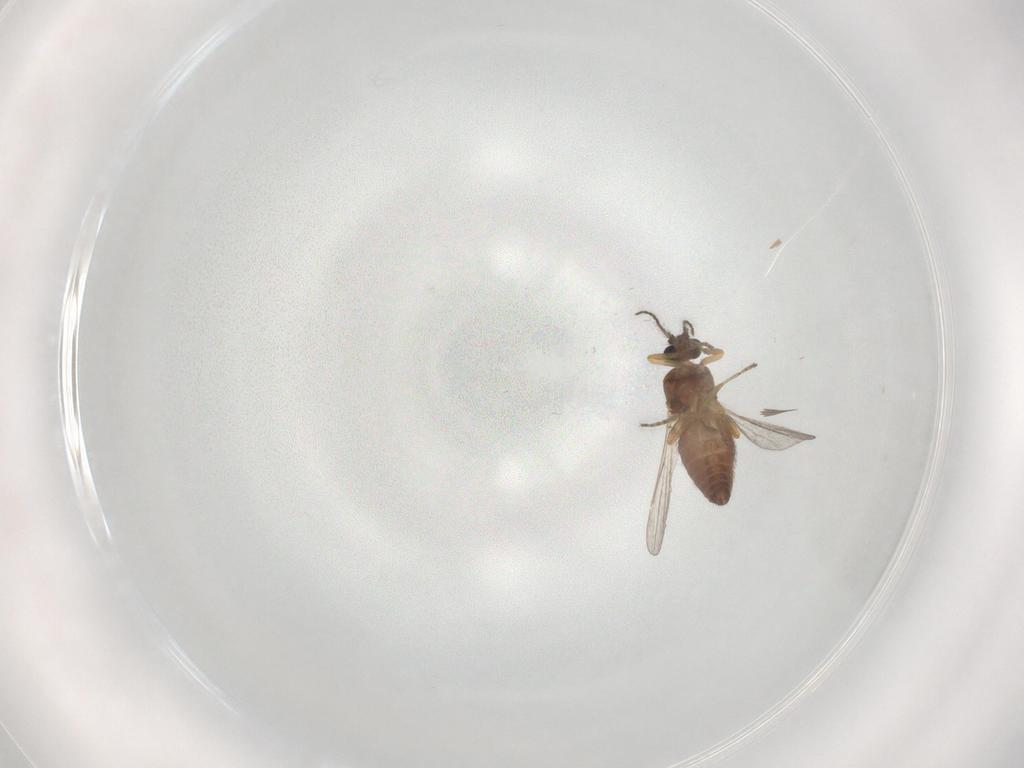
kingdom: Animalia
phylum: Arthropoda
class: Insecta
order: Diptera
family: Ceratopogonidae
